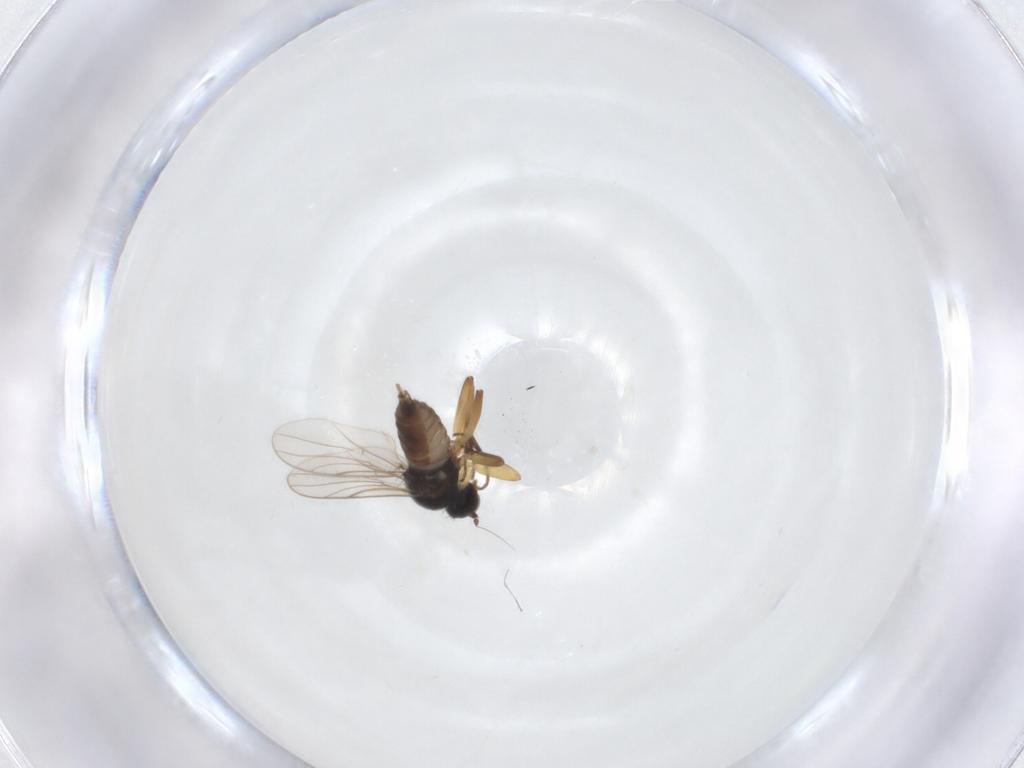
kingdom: Animalia
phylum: Arthropoda
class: Insecta
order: Diptera
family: Hybotidae
